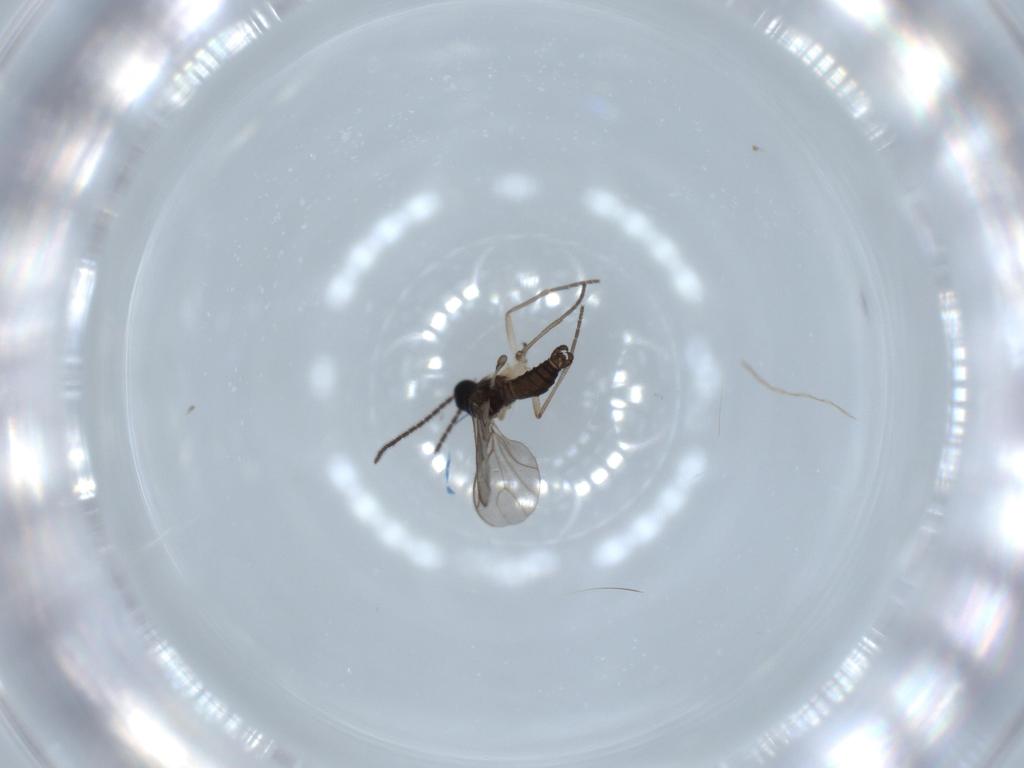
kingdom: Animalia
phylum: Arthropoda
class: Insecta
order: Diptera
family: Sciaridae
